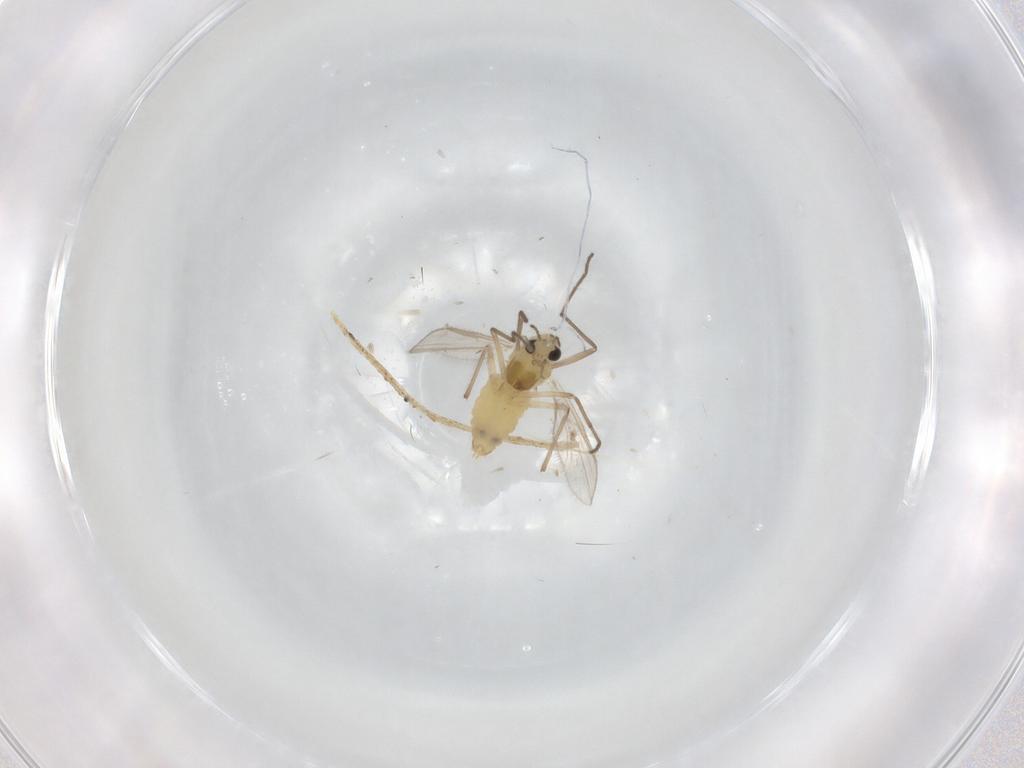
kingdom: Animalia
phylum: Arthropoda
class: Insecta
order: Diptera
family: Chironomidae
